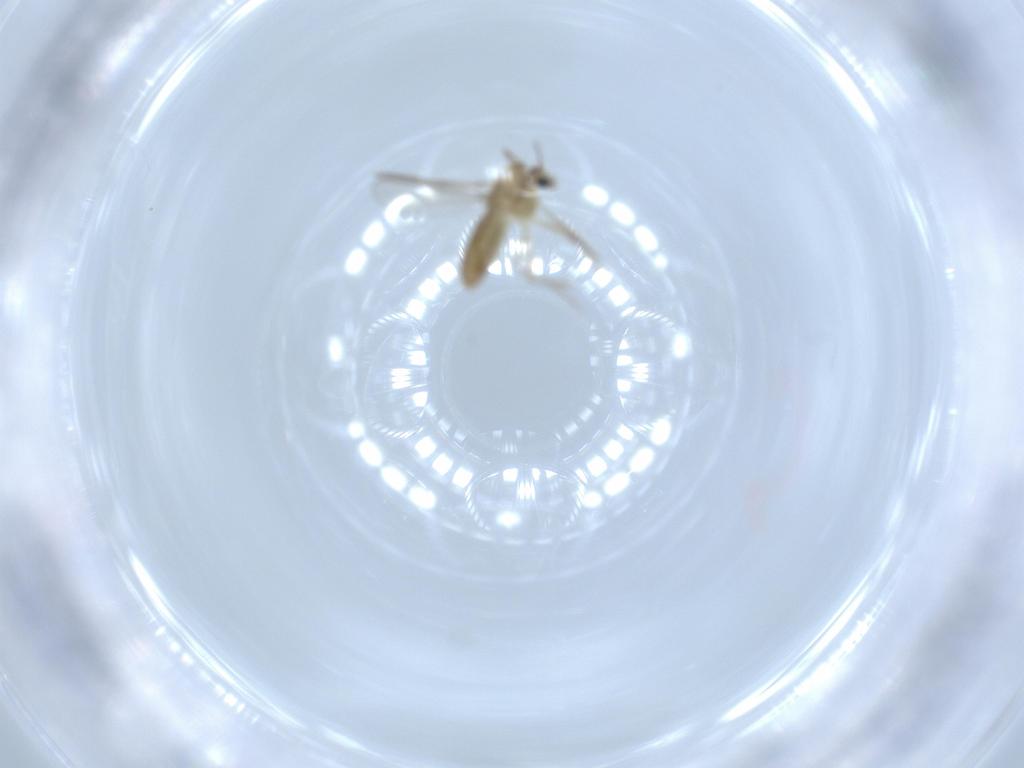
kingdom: Animalia
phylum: Arthropoda
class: Insecta
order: Diptera
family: Chironomidae
